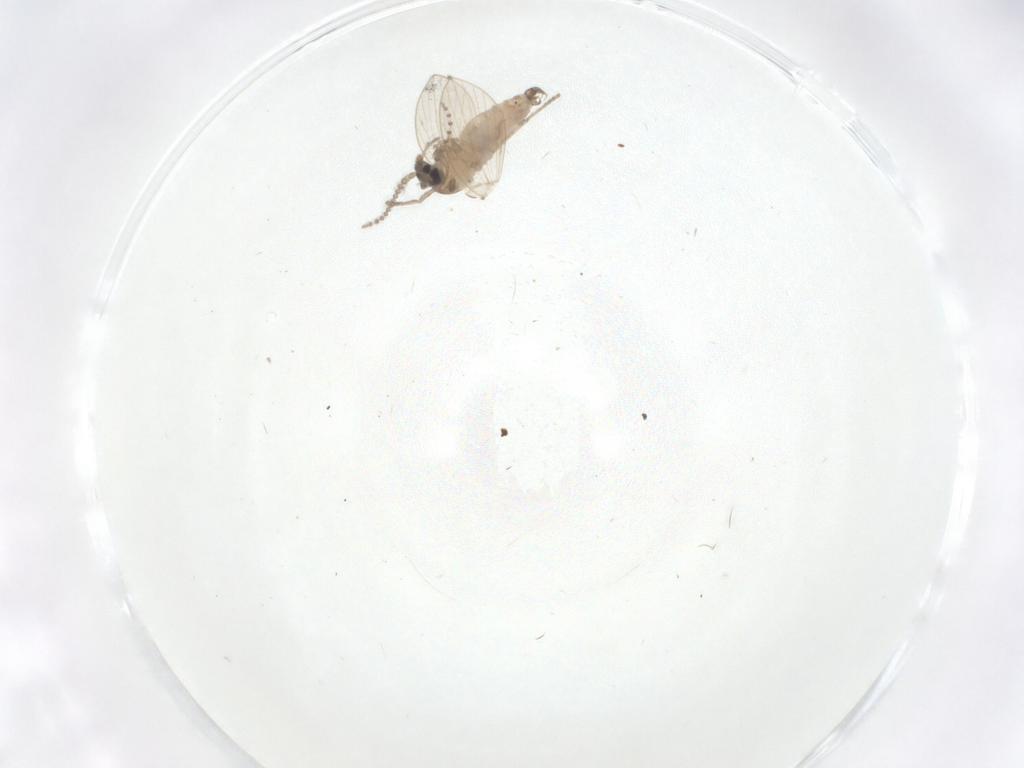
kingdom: Animalia
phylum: Arthropoda
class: Insecta
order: Diptera
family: Psychodidae
